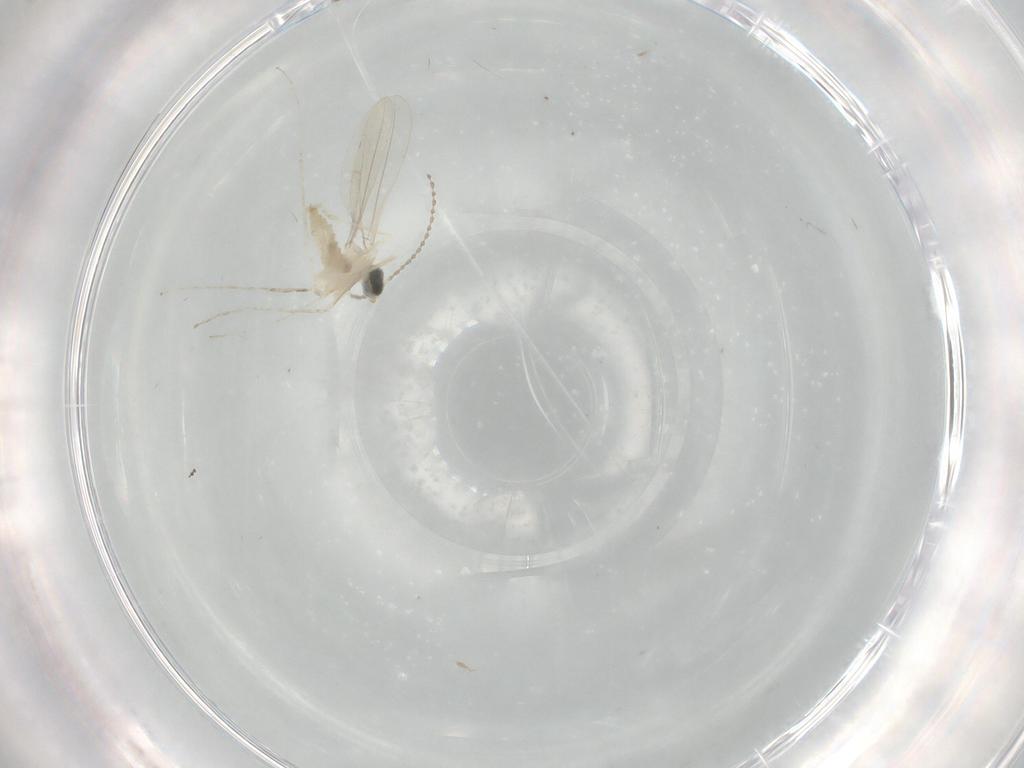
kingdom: Animalia
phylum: Arthropoda
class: Insecta
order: Diptera
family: Cecidomyiidae
